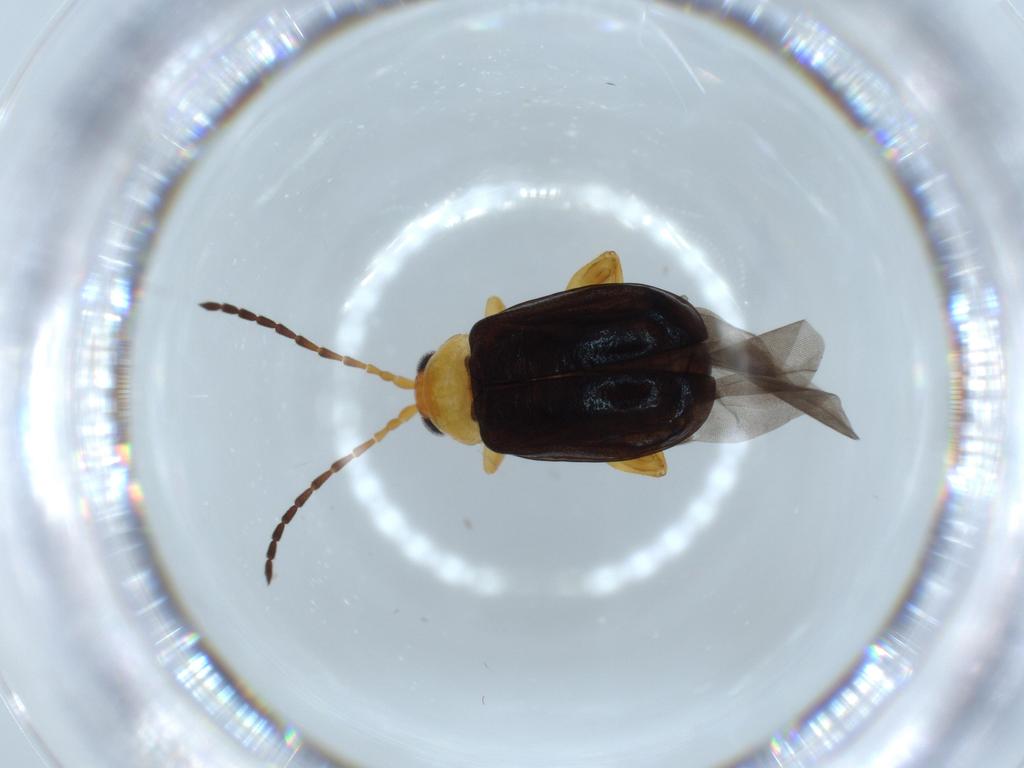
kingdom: Animalia
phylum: Arthropoda
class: Insecta
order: Coleoptera
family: Chrysomelidae
